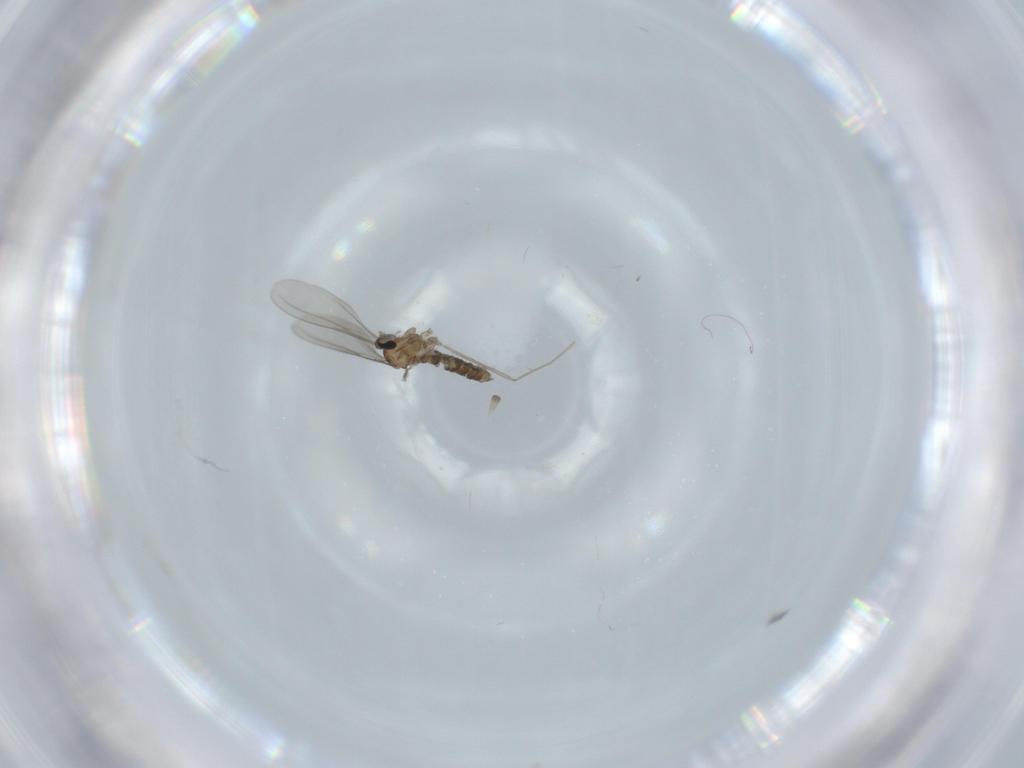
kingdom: Animalia
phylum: Arthropoda
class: Insecta
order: Diptera
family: Cecidomyiidae
